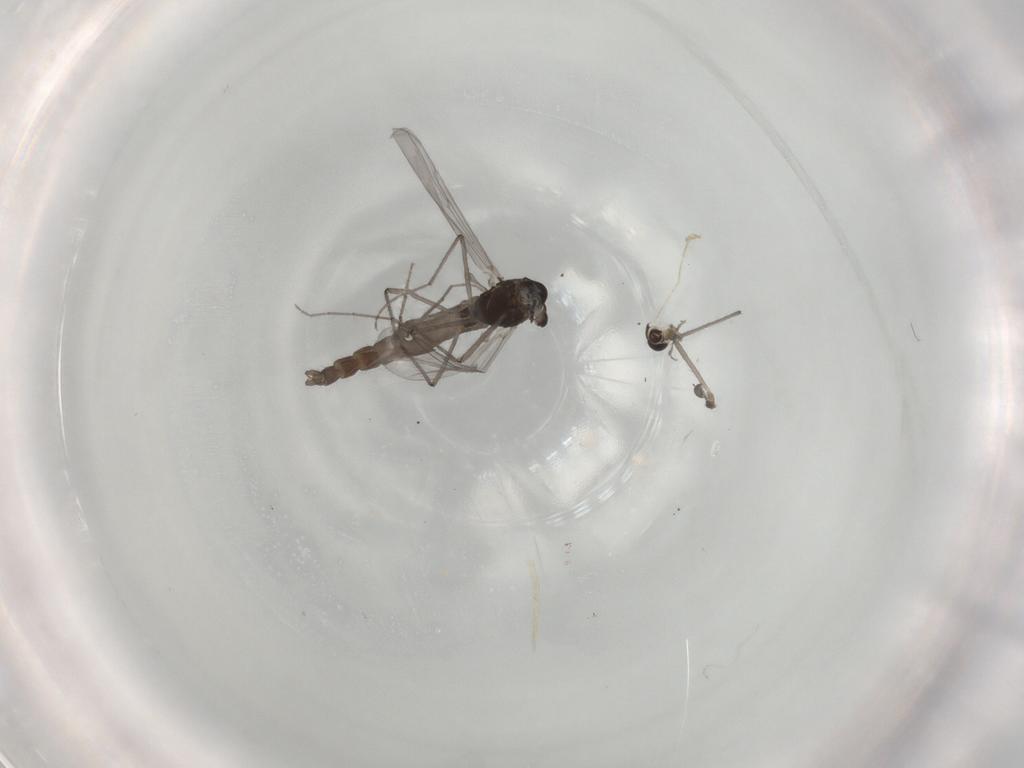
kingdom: Animalia
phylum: Arthropoda
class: Insecta
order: Diptera
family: Chironomidae
